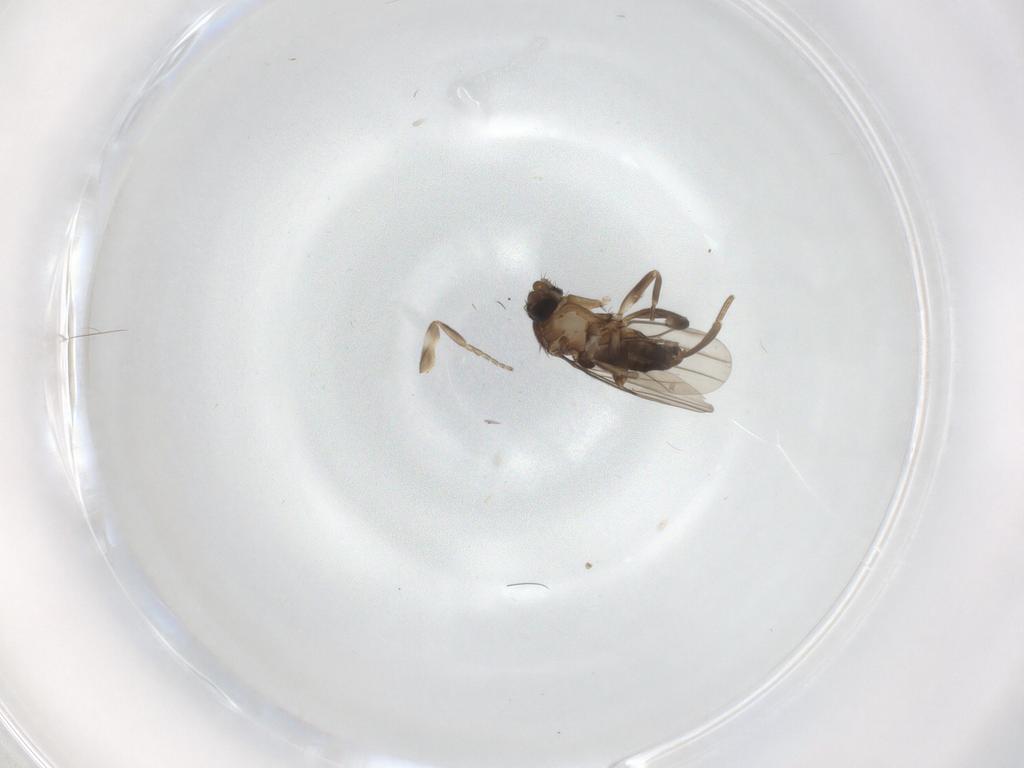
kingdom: Animalia
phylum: Arthropoda
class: Insecta
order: Diptera
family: Phoridae
